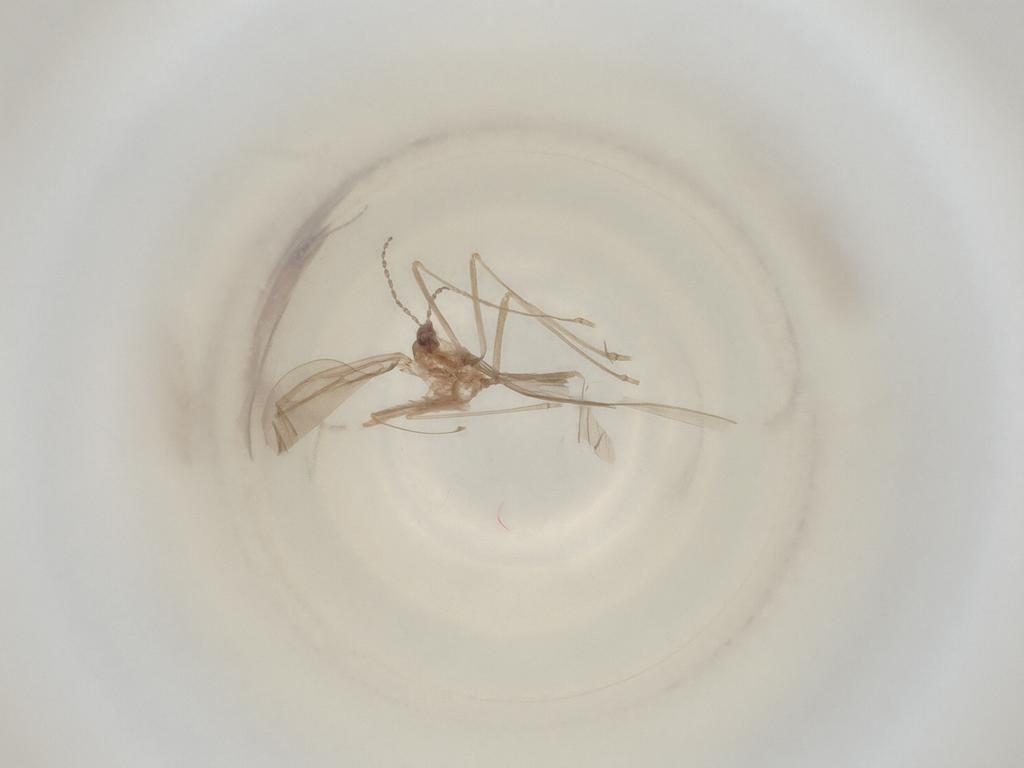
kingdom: Animalia
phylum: Arthropoda
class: Insecta
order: Diptera
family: Cecidomyiidae
